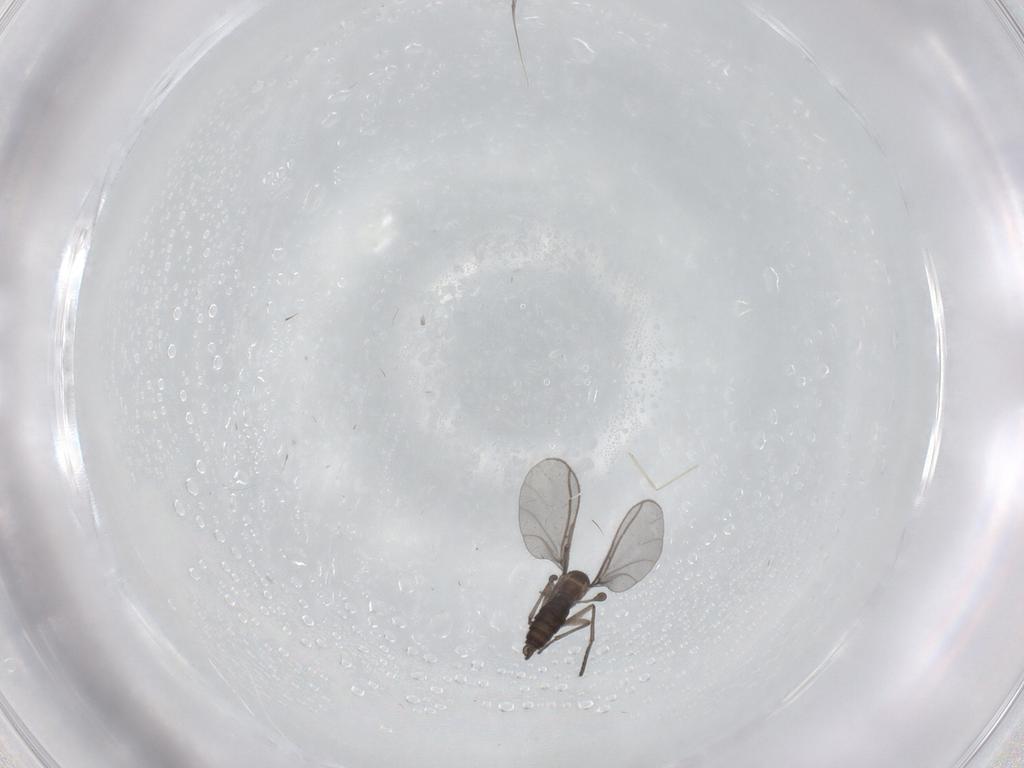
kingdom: Animalia
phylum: Arthropoda
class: Insecta
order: Diptera
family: Cecidomyiidae
